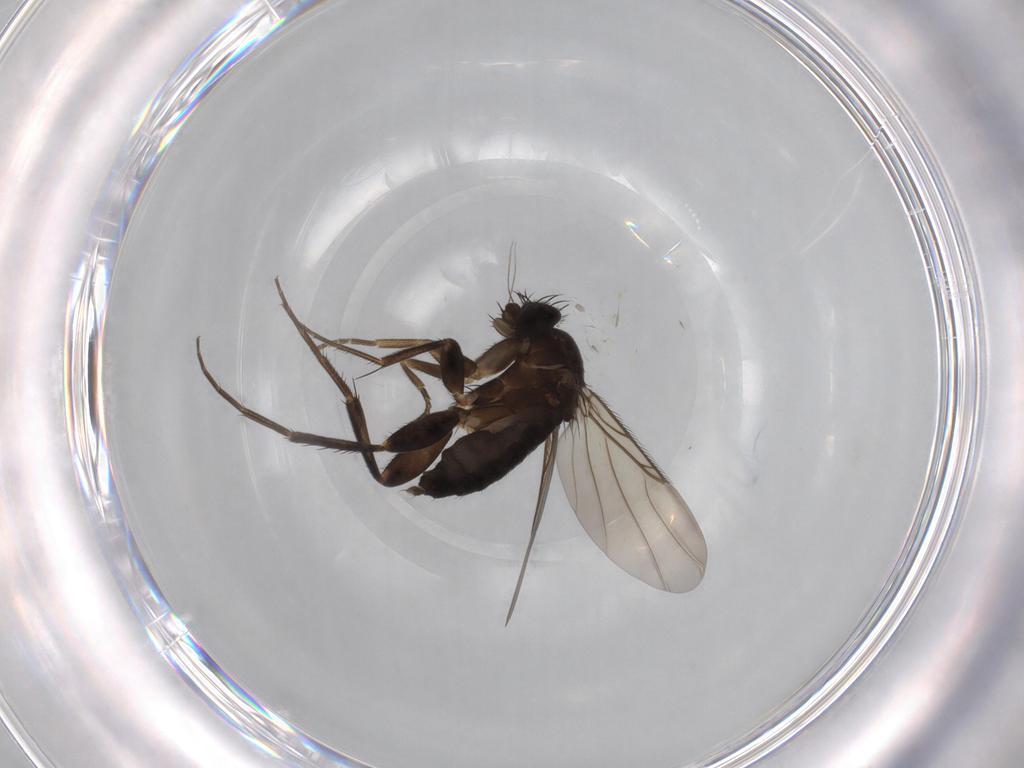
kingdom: Animalia
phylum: Arthropoda
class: Insecta
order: Diptera
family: Phoridae
